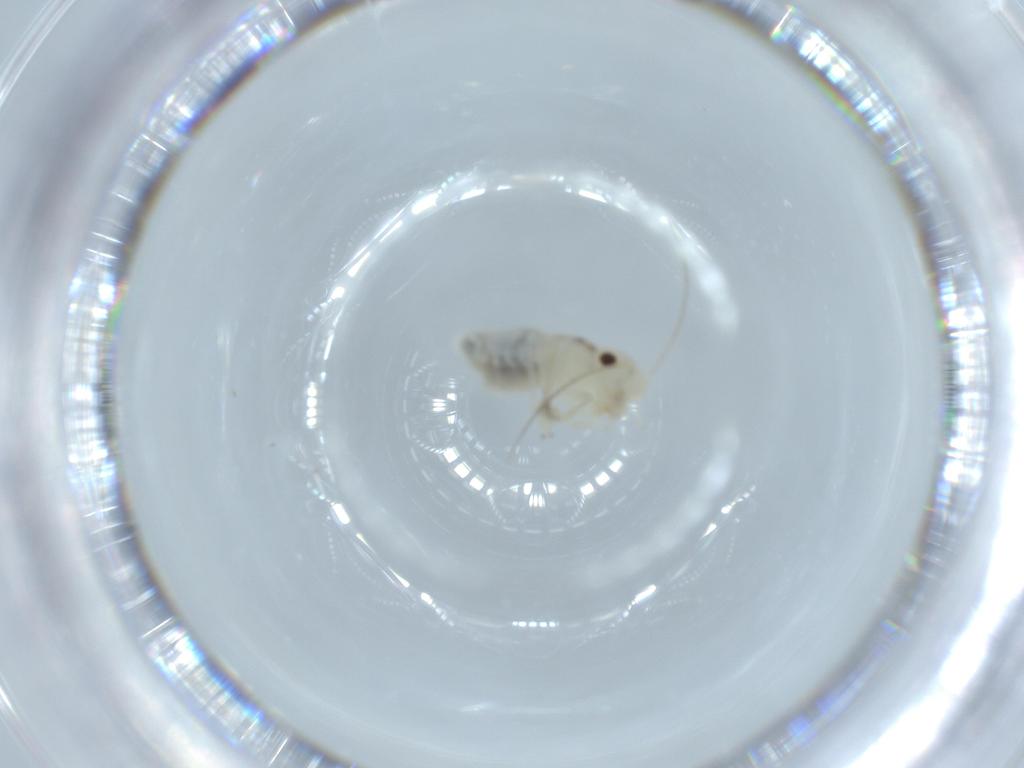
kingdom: Animalia
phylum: Arthropoda
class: Insecta
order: Psocodea
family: Caeciliusidae
